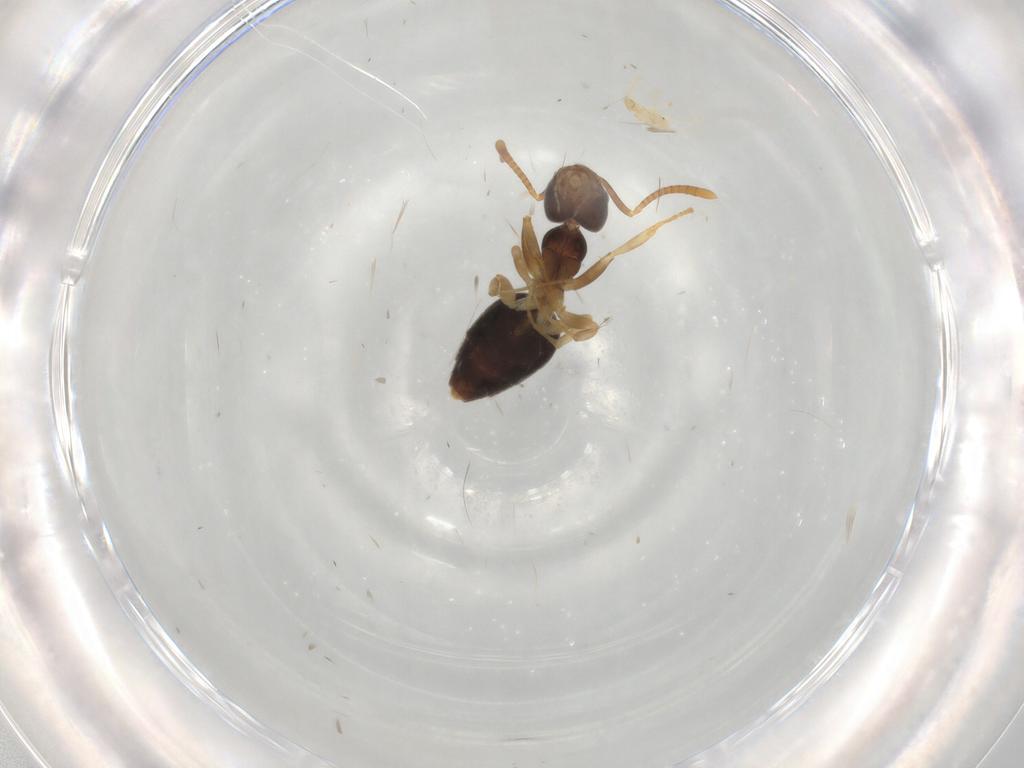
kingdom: Animalia
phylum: Arthropoda
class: Insecta
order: Hymenoptera
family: Formicidae
